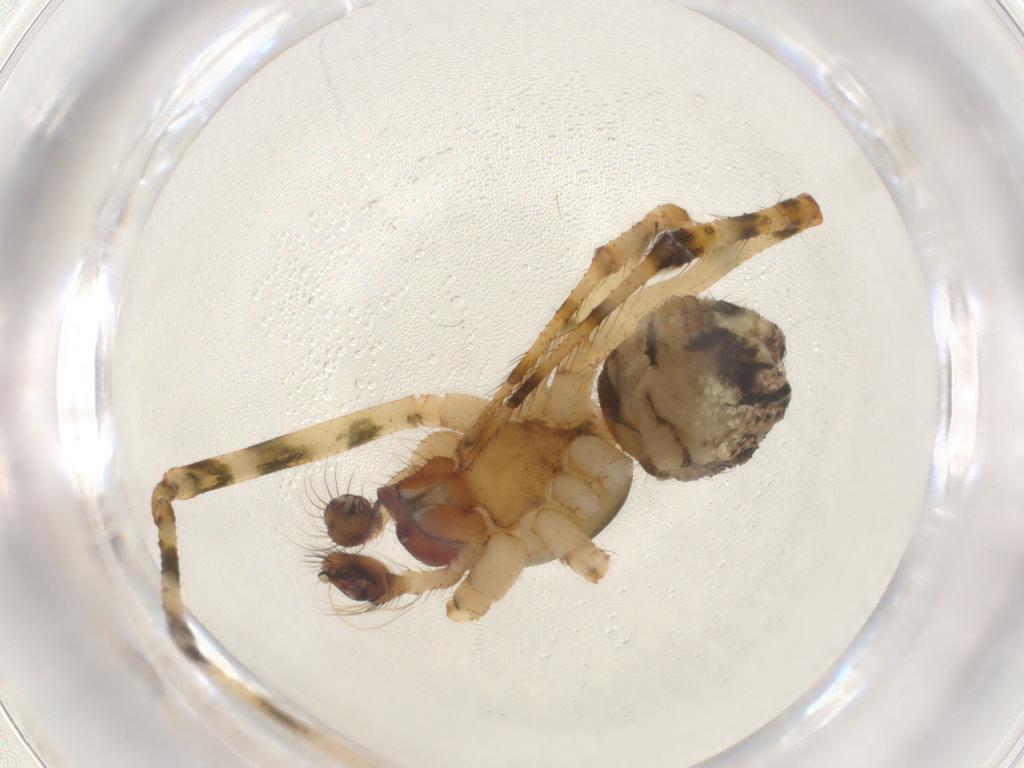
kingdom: Animalia
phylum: Arthropoda
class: Arachnida
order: Araneae
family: Theridiidae
